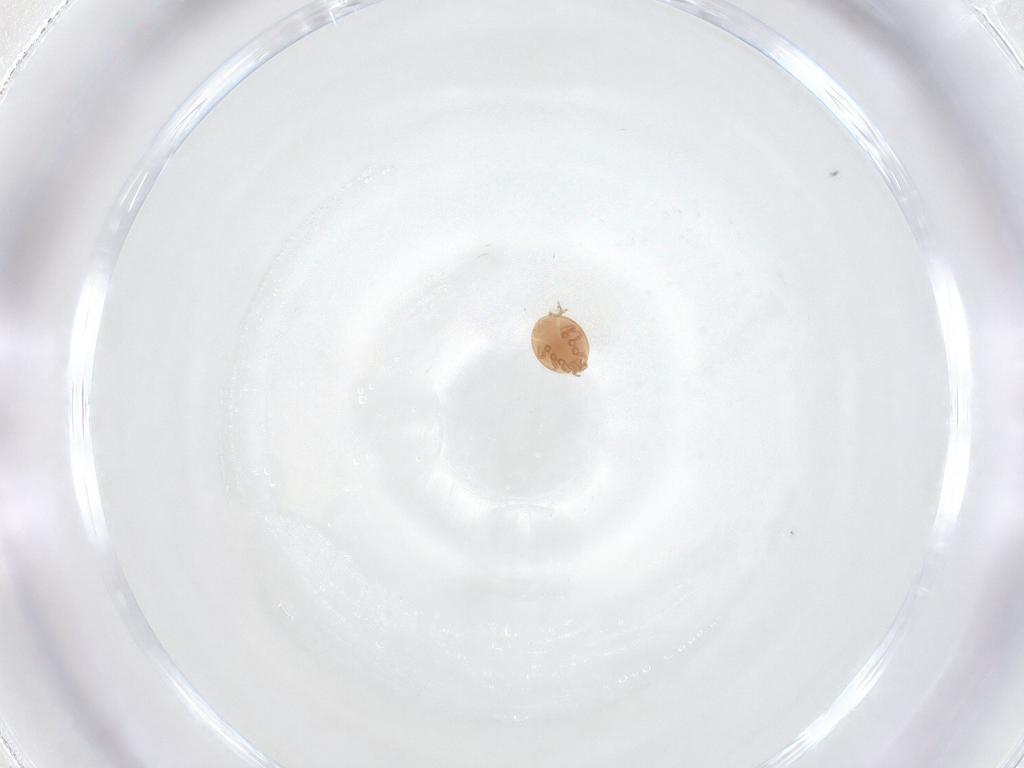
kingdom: Animalia
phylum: Arthropoda
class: Arachnida
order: Mesostigmata
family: Trematuridae
